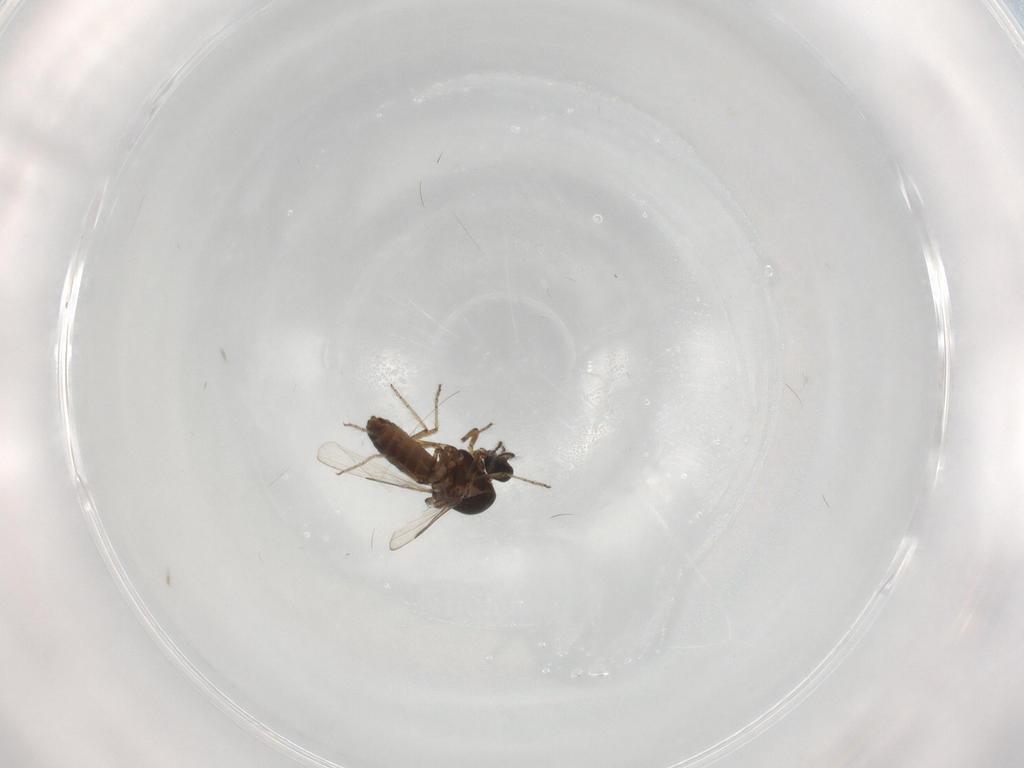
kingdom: Animalia
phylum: Arthropoda
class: Insecta
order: Diptera
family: Ceratopogonidae
